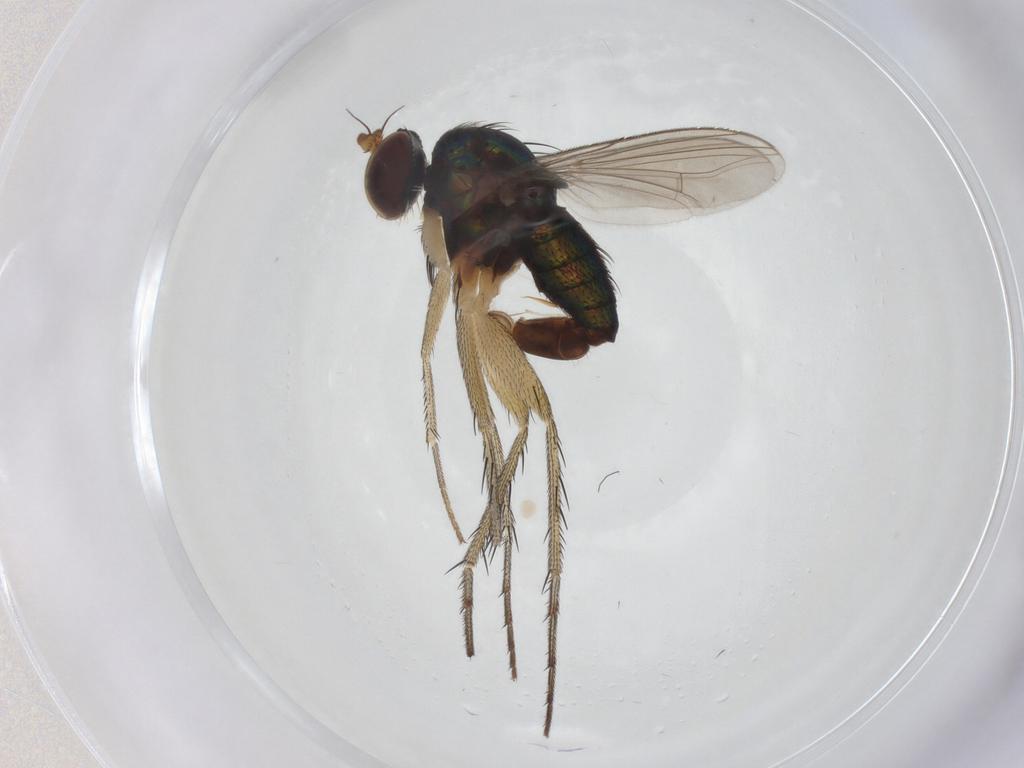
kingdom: Animalia
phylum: Arthropoda
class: Insecta
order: Diptera
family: Dolichopodidae
